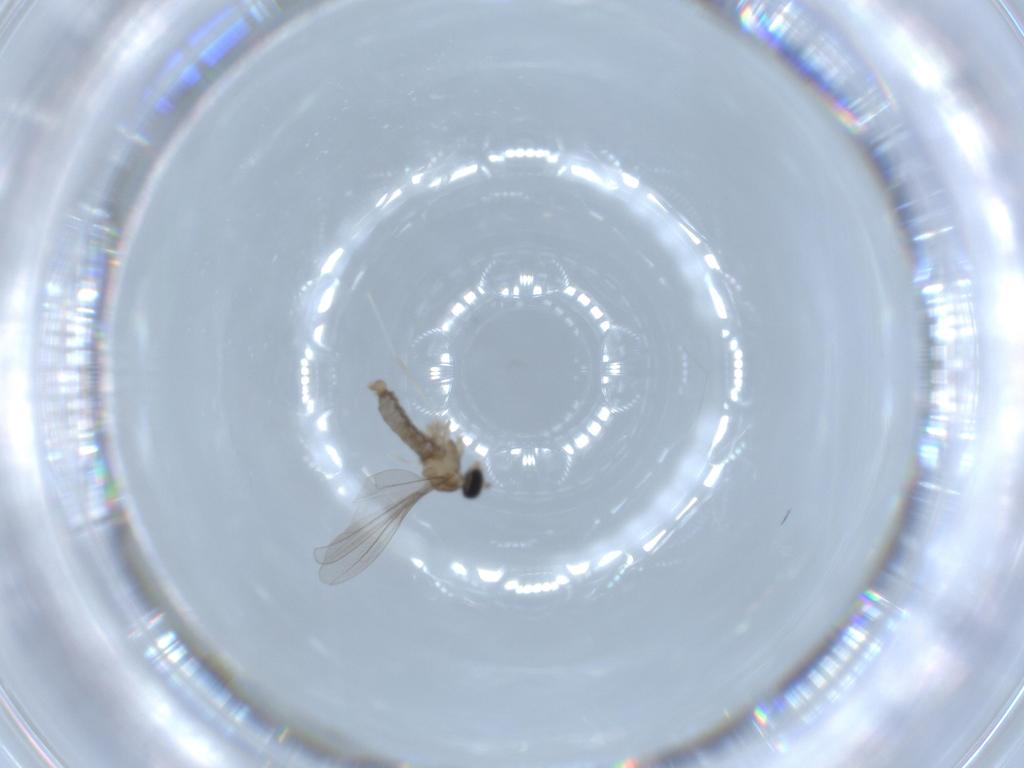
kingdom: Animalia
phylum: Arthropoda
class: Insecta
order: Diptera
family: Cecidomyiidae
